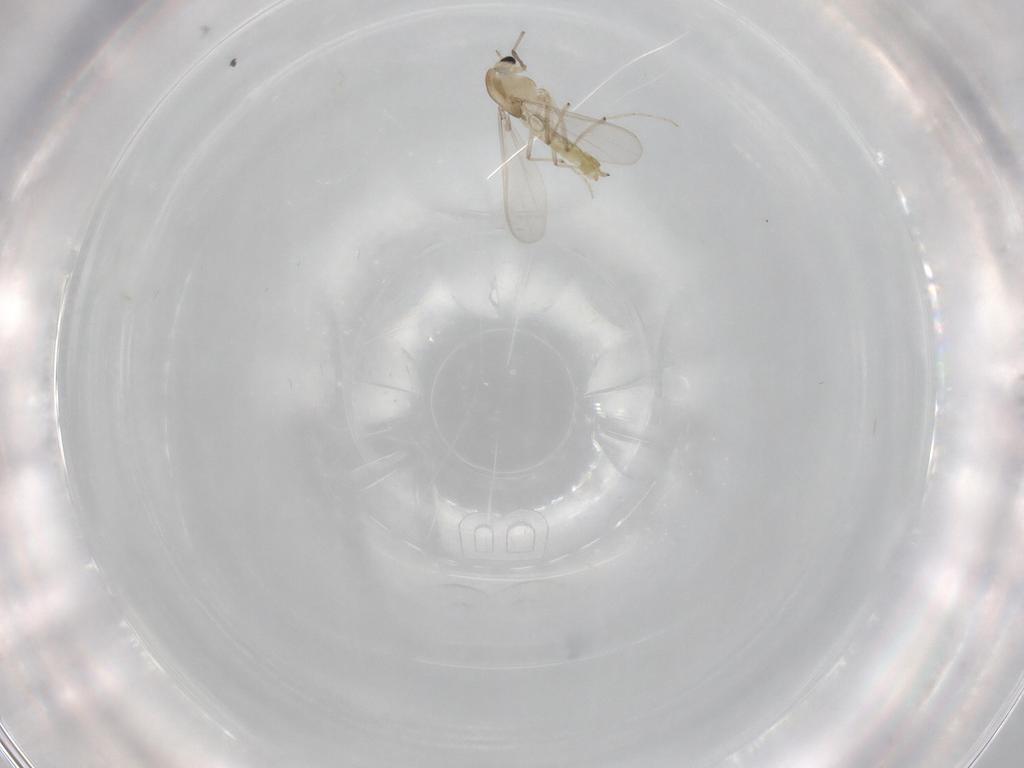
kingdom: Animalia
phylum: Arthropoda
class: Insecta
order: Diptera
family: Chironomidae
